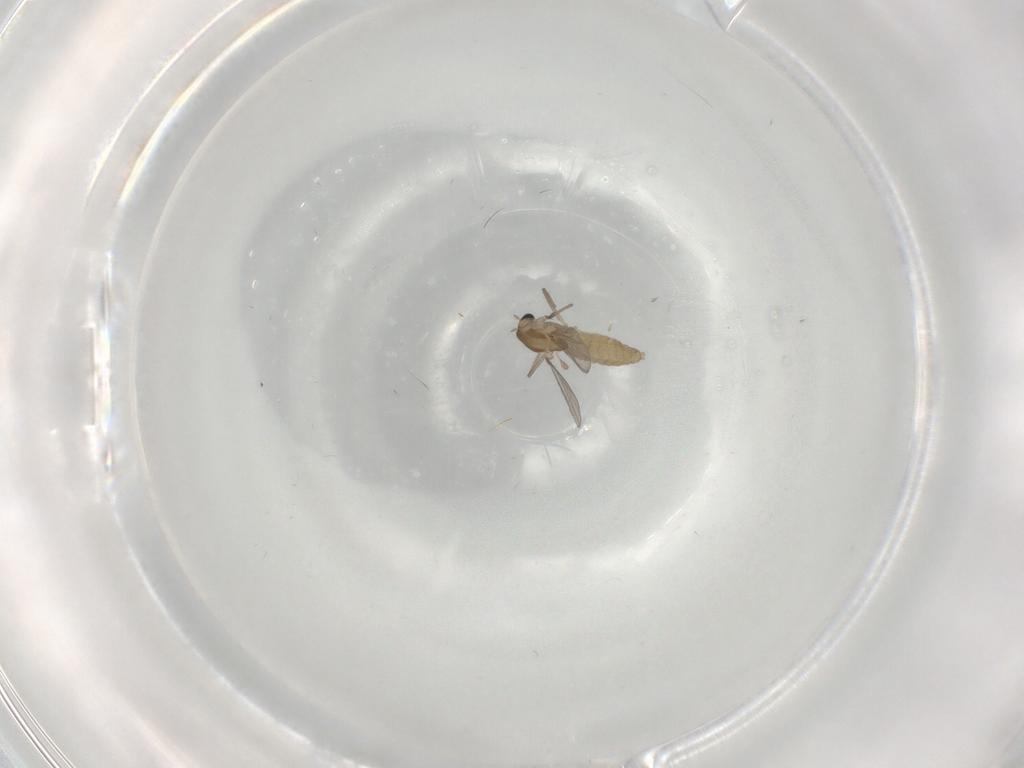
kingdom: Animalia
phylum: Arthropoda
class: Insecta
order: Diptera
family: Chironomidae
